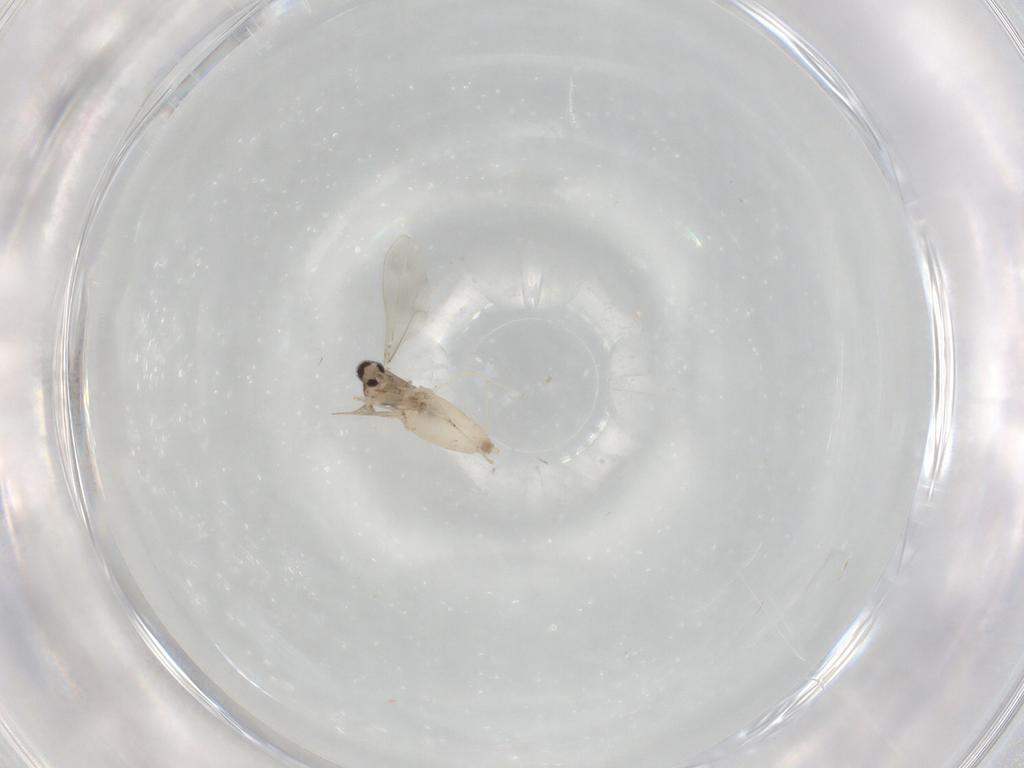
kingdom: Animalia
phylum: Arthropoda
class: Insecta
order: Diptera
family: Cecidomyiidae
